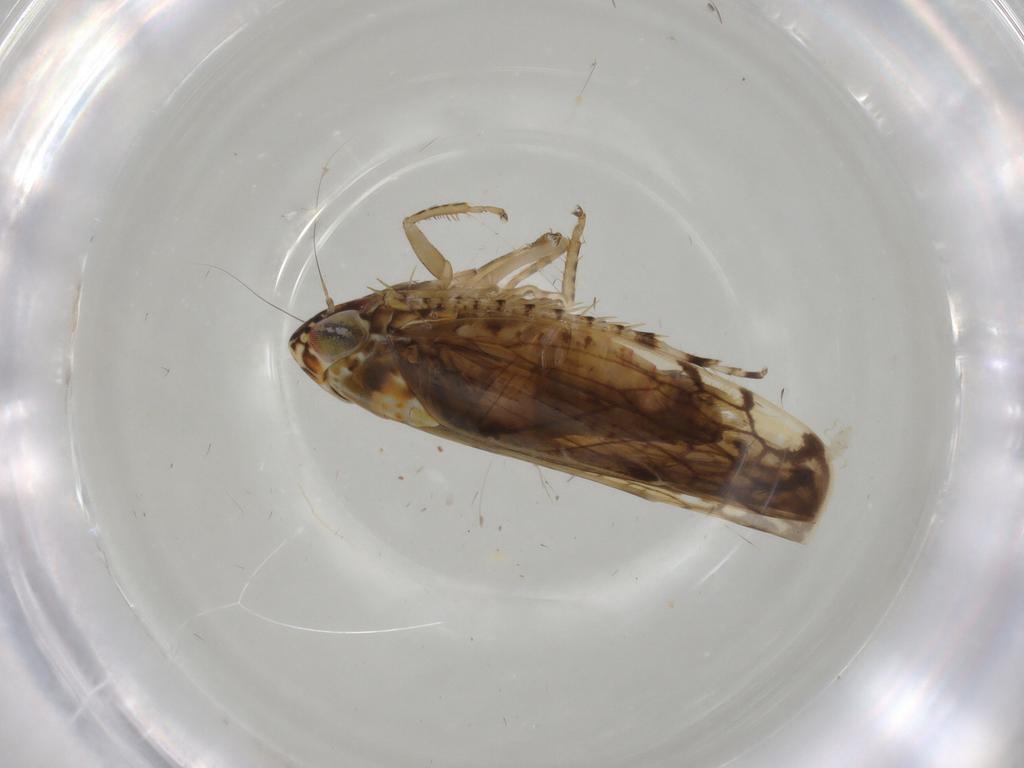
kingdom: Animalia
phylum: Arthropoda
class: Insecta
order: Hemiptera
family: Cicadellidae
